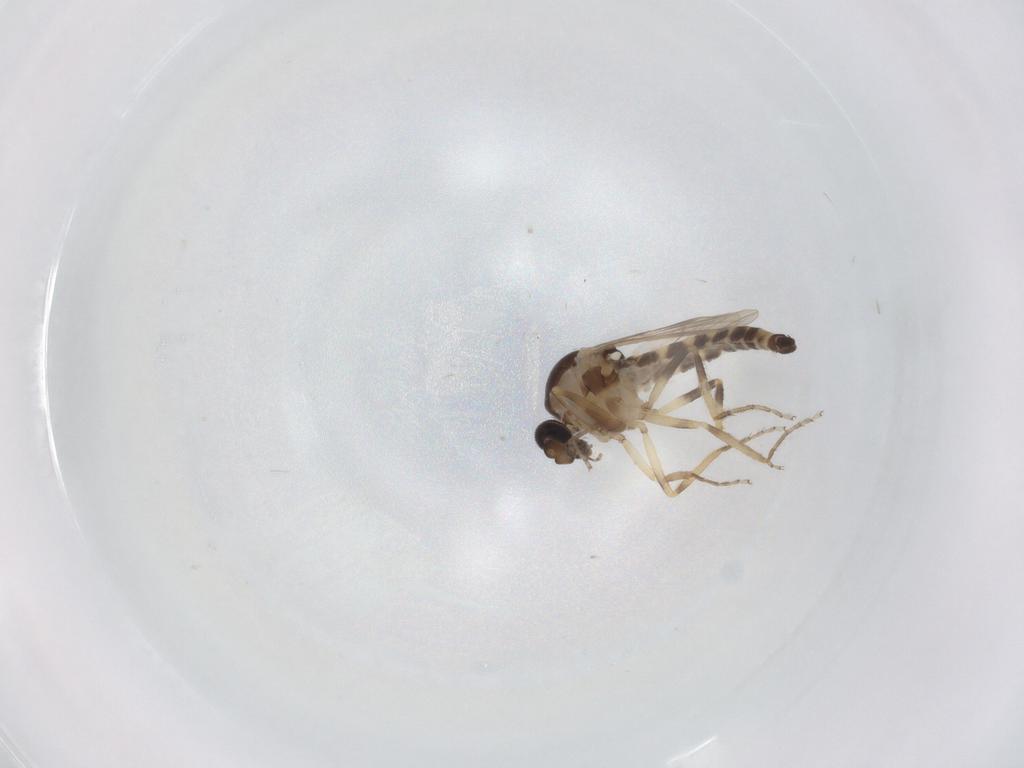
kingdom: Animalia
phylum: Arthropoda
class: Insecta
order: Diptera
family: Ceratopogonidae
